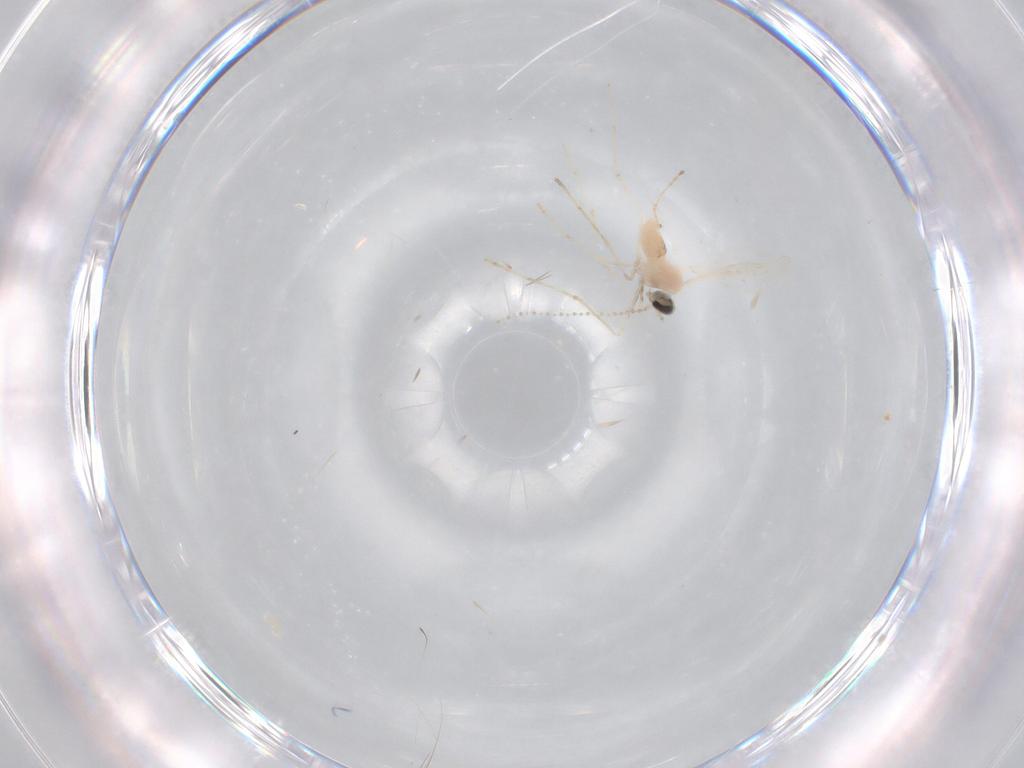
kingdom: Animalia
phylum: Arthropoda
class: Insecta
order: Diptera
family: Cecidomyiidae
